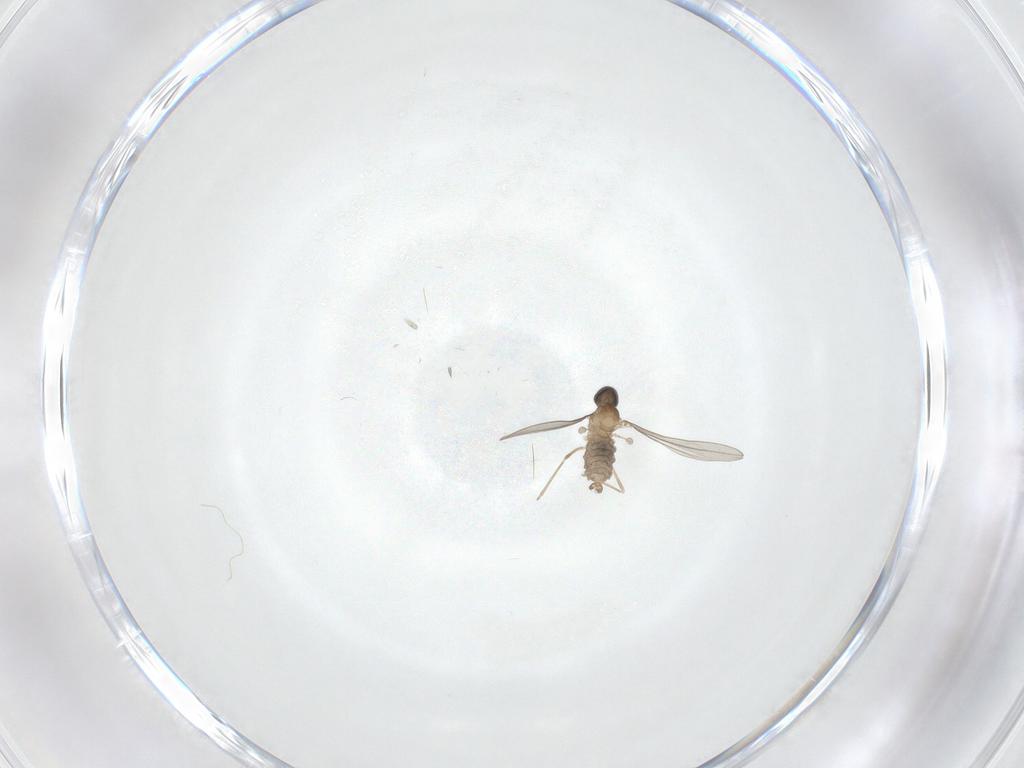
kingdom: Animalia
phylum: Arthropoda
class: Insecta
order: Diptera
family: Cecidomyiidae
